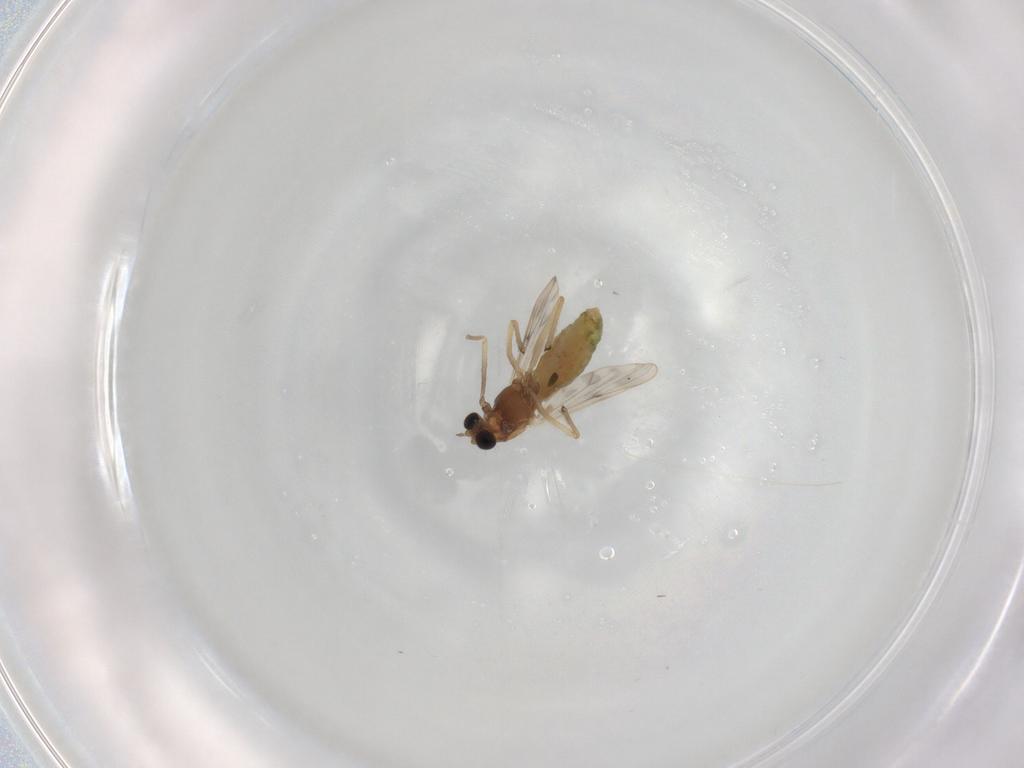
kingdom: Animalia
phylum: Arthropoda
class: Insecta
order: Diptera
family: Chironomidae
